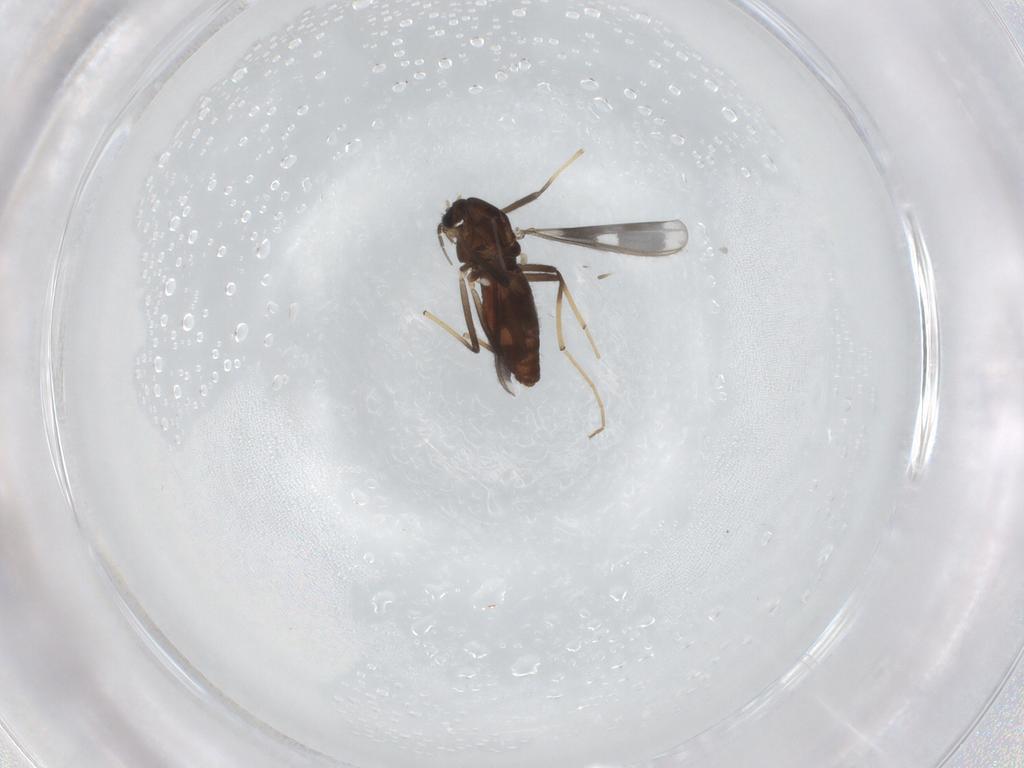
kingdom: Animalia
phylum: Arthropoda
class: Insecta
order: Diptera
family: Chironomidae
